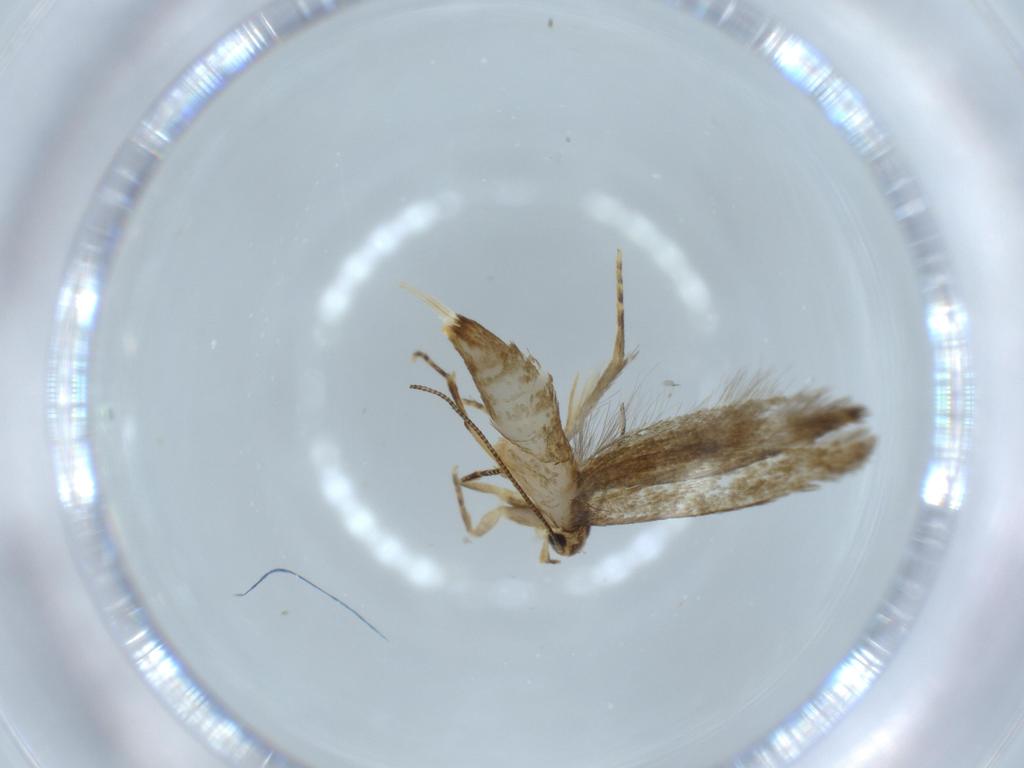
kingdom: Animalia
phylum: Arthropoda
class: Insecta
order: Lepidoptera
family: Tineidae
